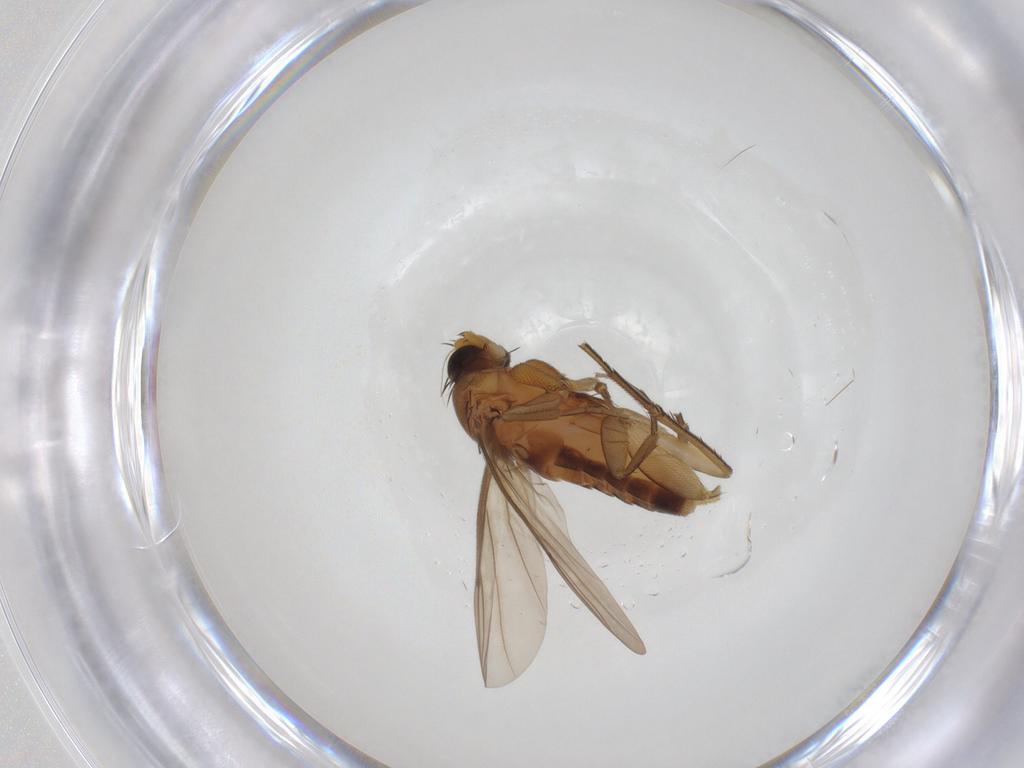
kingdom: Animalia
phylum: Arthropoda
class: Insecta
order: Diptera
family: Cecidomyiidae
